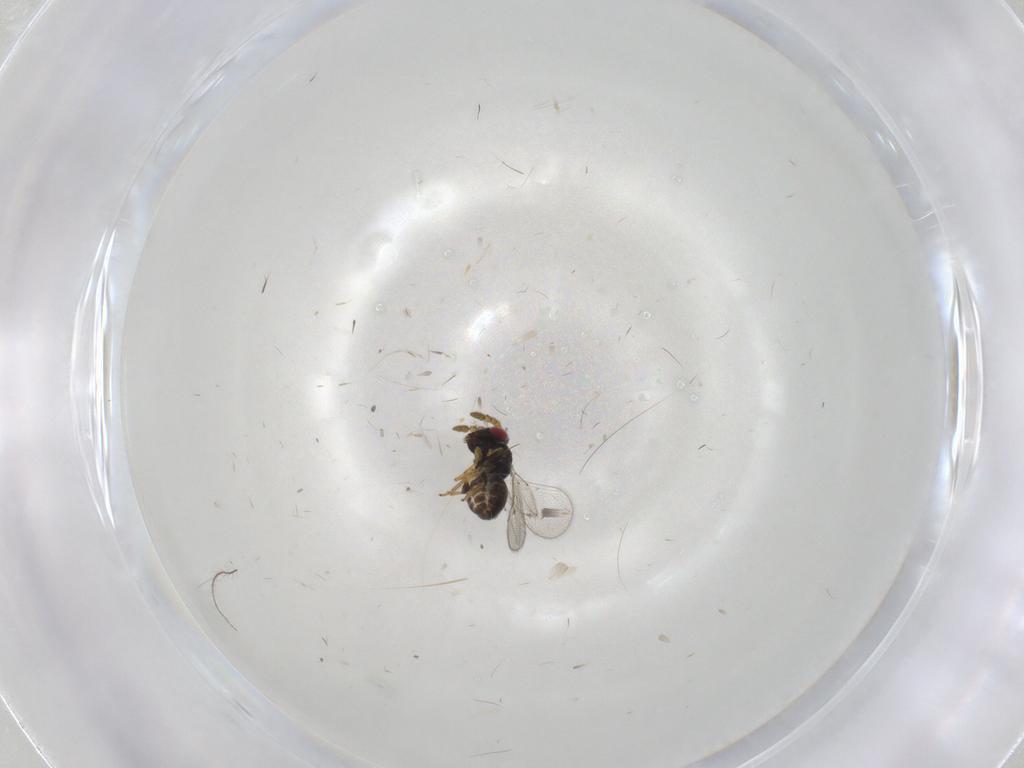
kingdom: Animalia
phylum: Arthropoda
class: Insecta
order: Hymenoptera
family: Eulophidae
